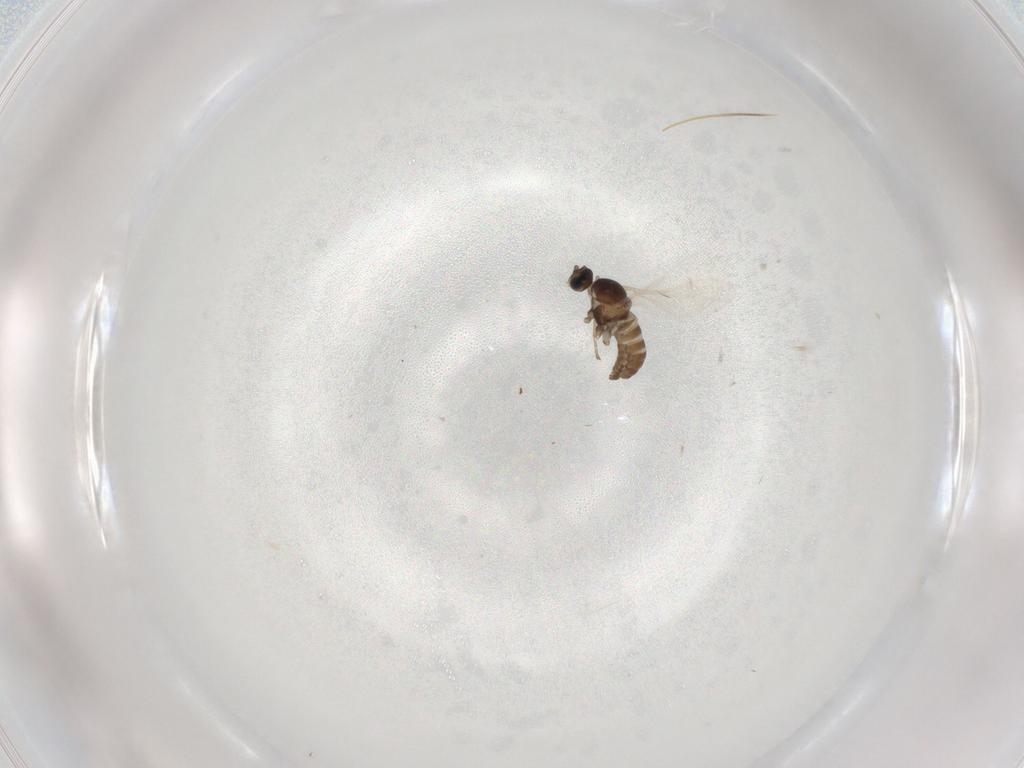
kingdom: Animalia
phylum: Arthropoda
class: Insecta
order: Diptera
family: Cecidomyiidae
